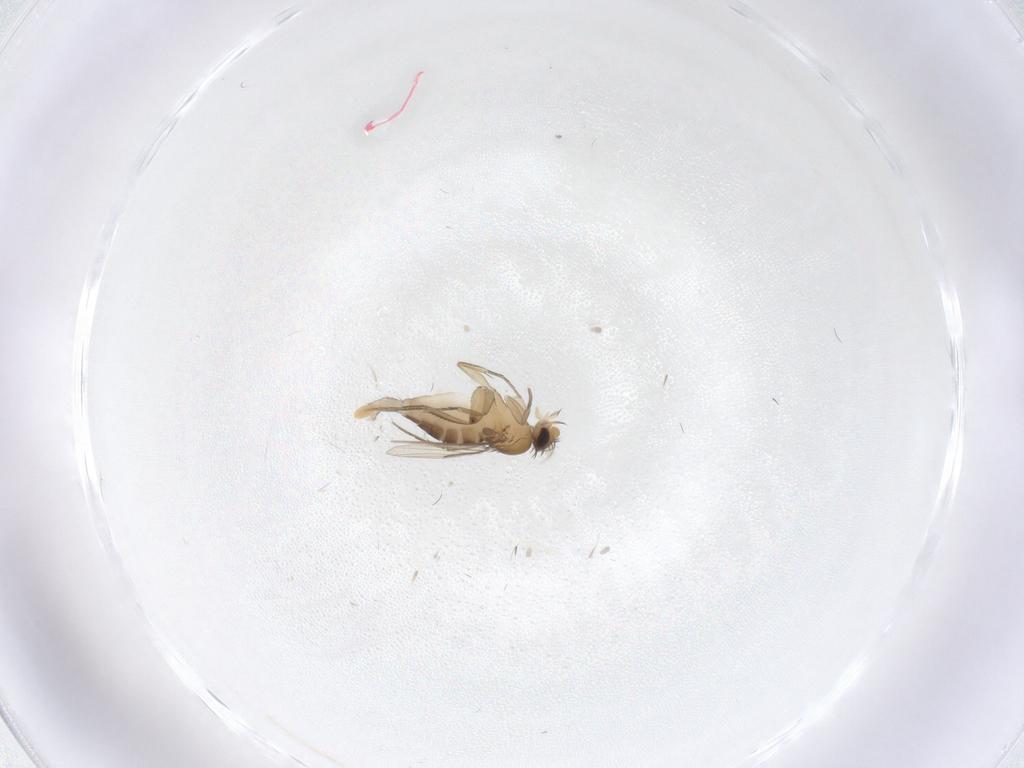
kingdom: Animalia
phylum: Arthropoda
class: Insecta
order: Diptera
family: Phoridae
